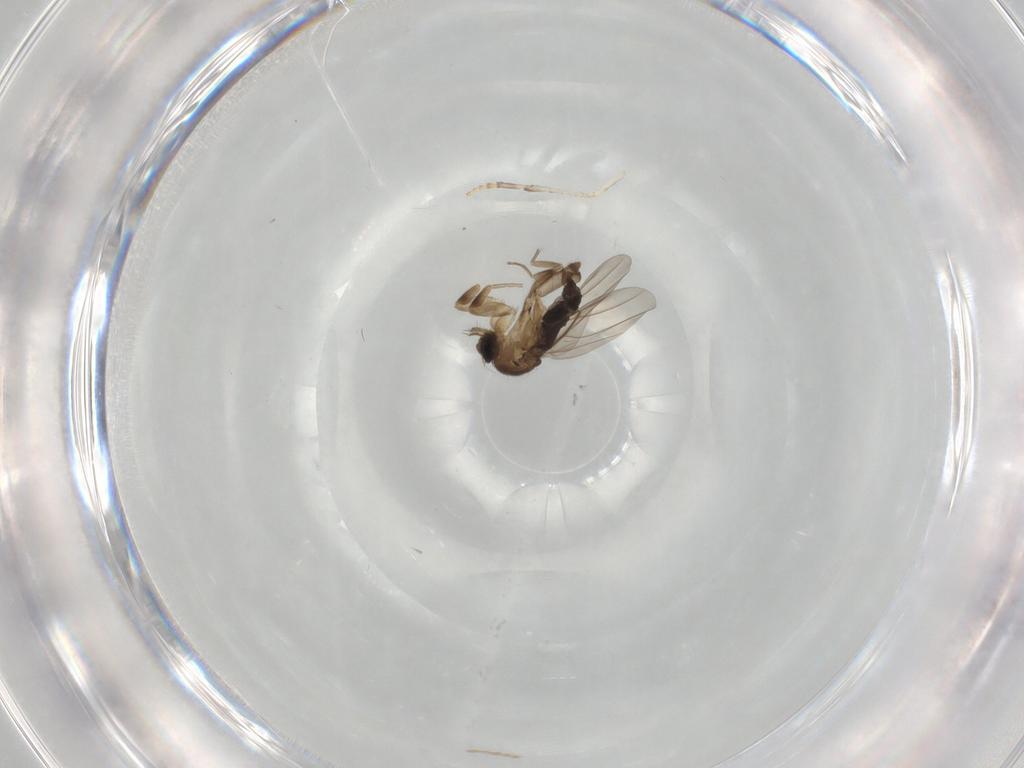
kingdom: Animalia
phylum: Arthropoda
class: Insecta
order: Diptera
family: Phoridae
